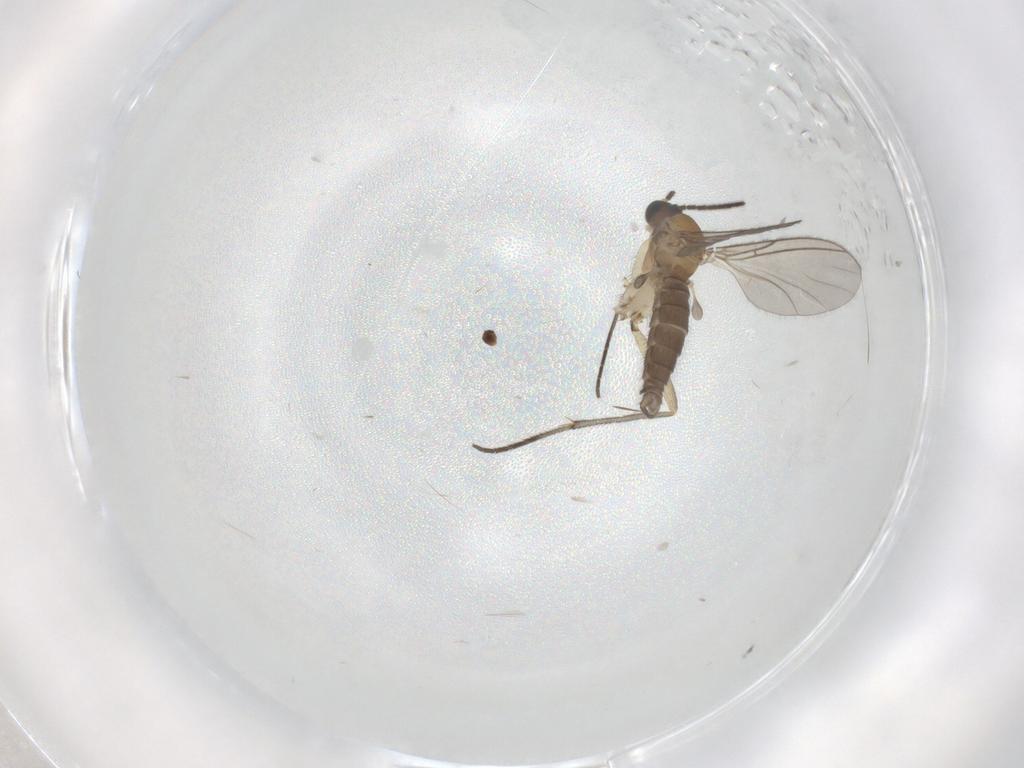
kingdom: Animalia
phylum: Arthropoda
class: Insecta
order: Diptera
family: Sciaridae
